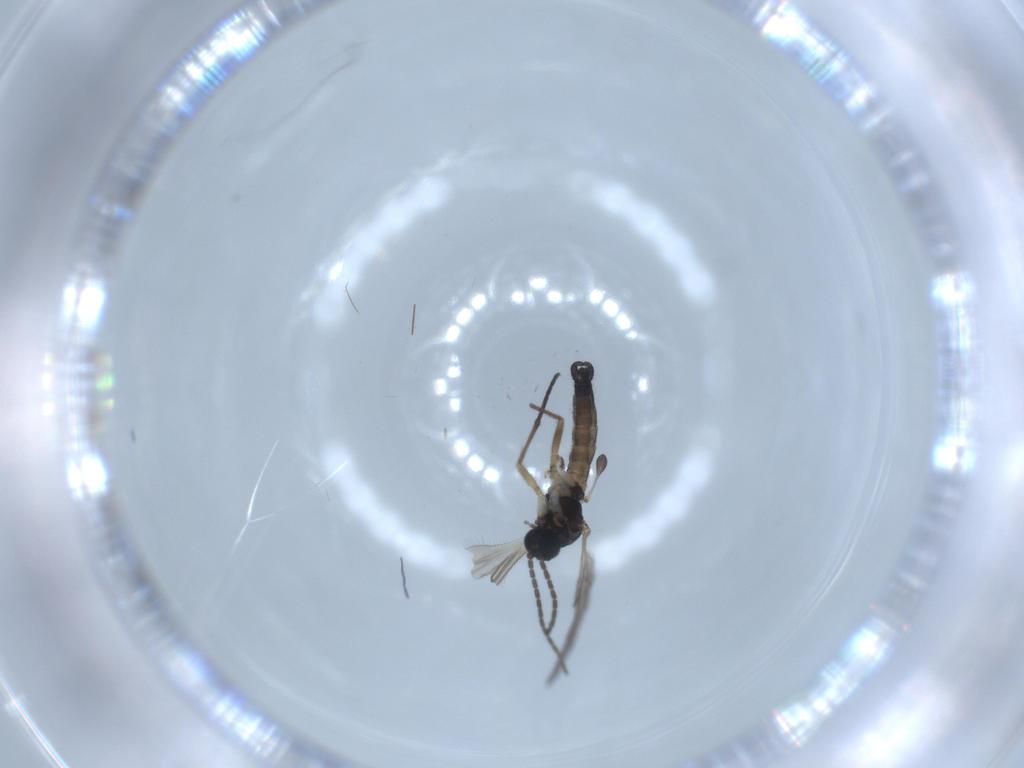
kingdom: Animalia
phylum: Arthropoda
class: Insecta
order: Diptera
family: Sciaridae
